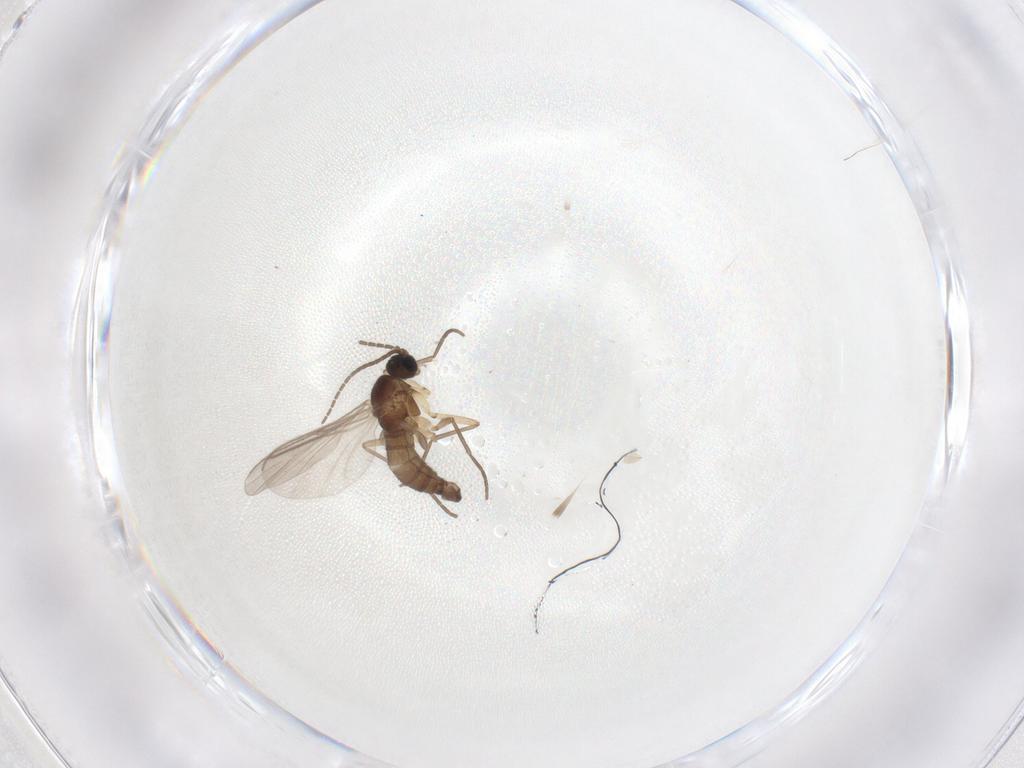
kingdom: Animalia
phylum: Arthropoda
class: Insecta
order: Diptera
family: Sciaridae
